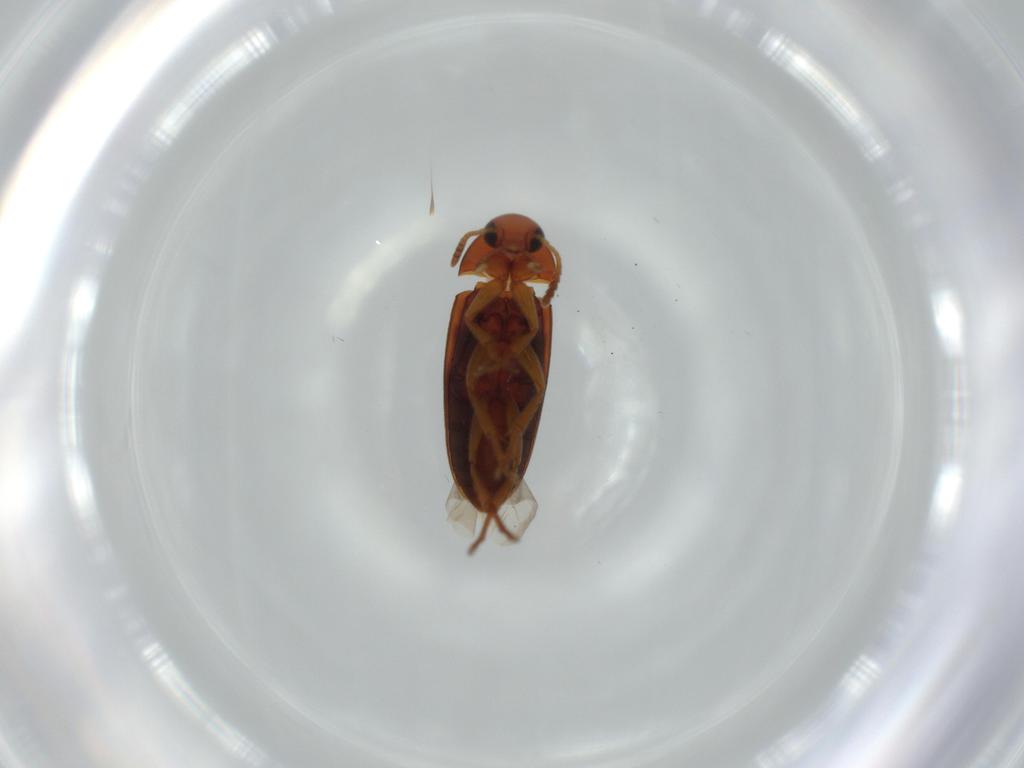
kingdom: Animalia
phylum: Arthropoda
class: Insecta
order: Coleoptera
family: Scraptiidae
